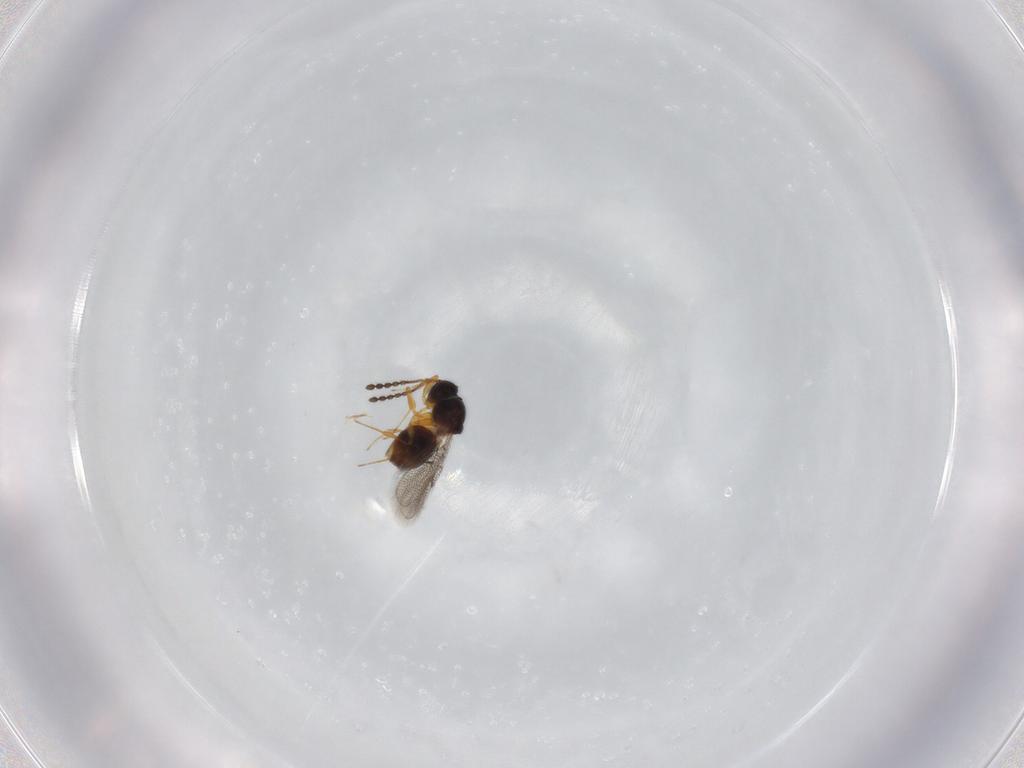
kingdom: Animalia
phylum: Arthropoda
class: Insecta
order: Hymenoptera
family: Figitidae
